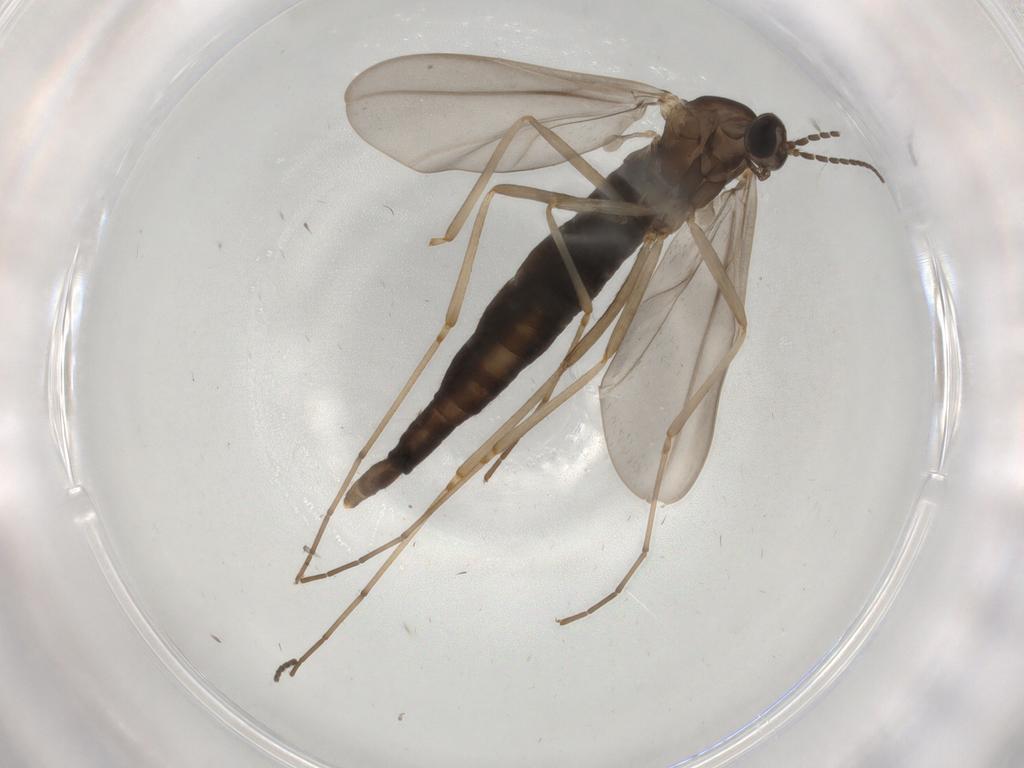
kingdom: Animalia
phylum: Arthropoda
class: Insecta
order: Diptera
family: Cecidomyiidae
